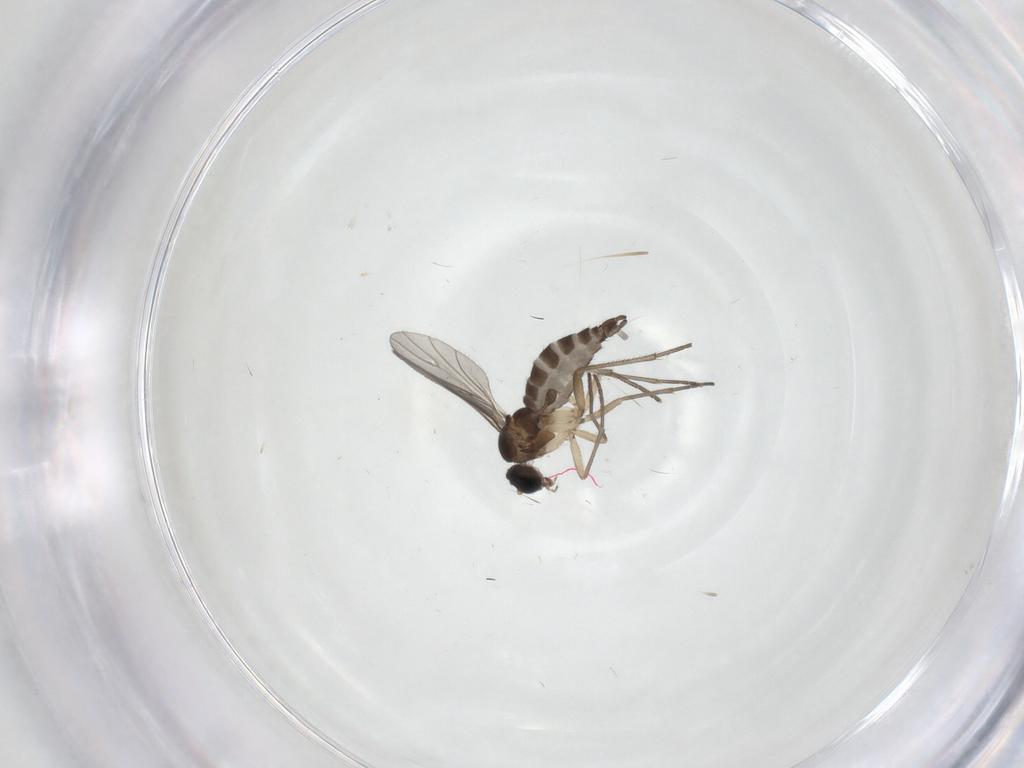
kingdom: Animalia
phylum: Arthropoda
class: Insecta
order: Diptera
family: Sciaridae
